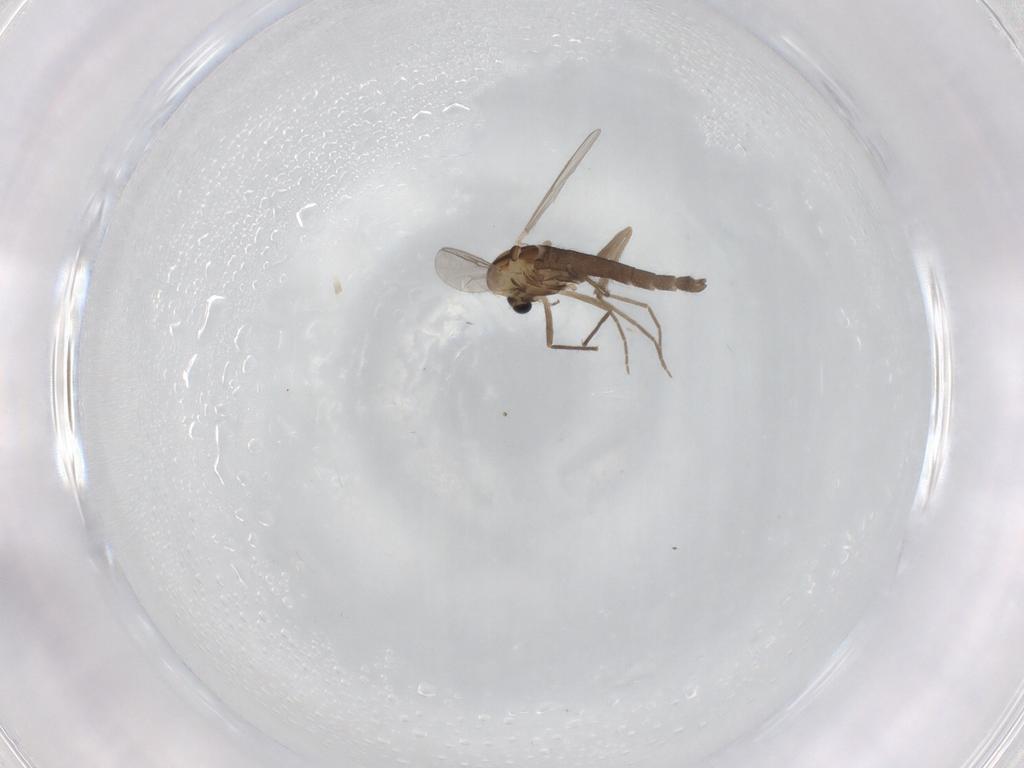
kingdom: Animalia
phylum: Arthropoda
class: Insecta
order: Diptera
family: Chironomidae
